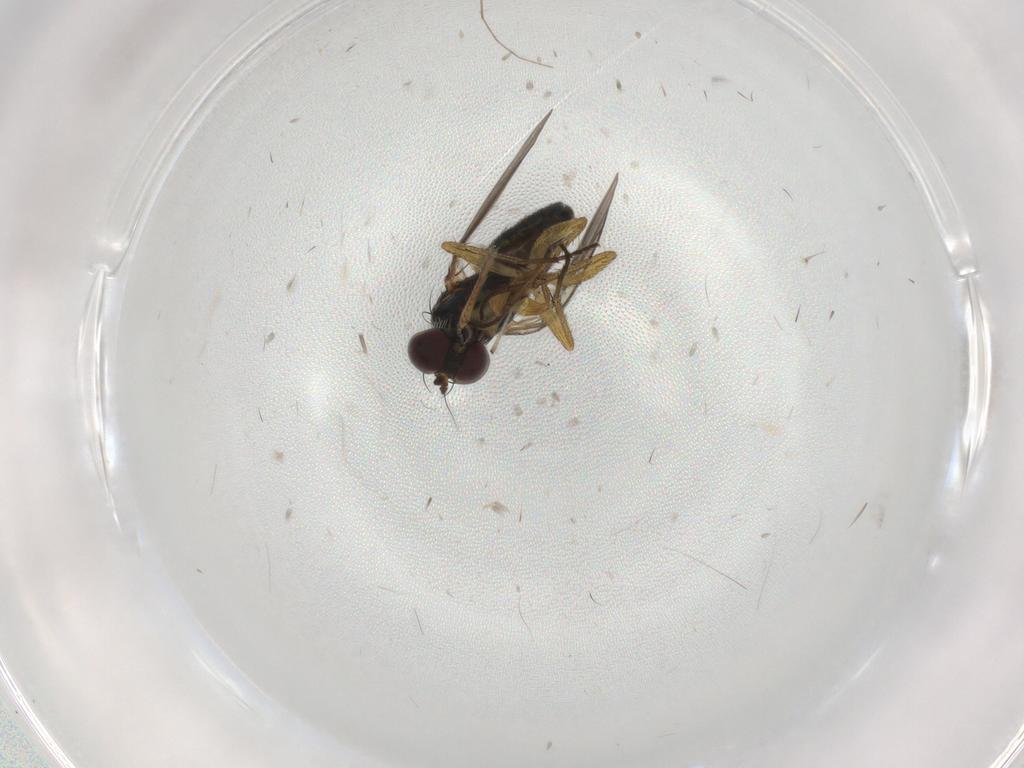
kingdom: Animalia
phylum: Arthropoda
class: Insecta
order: Diptera
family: Ceratopogonidae
